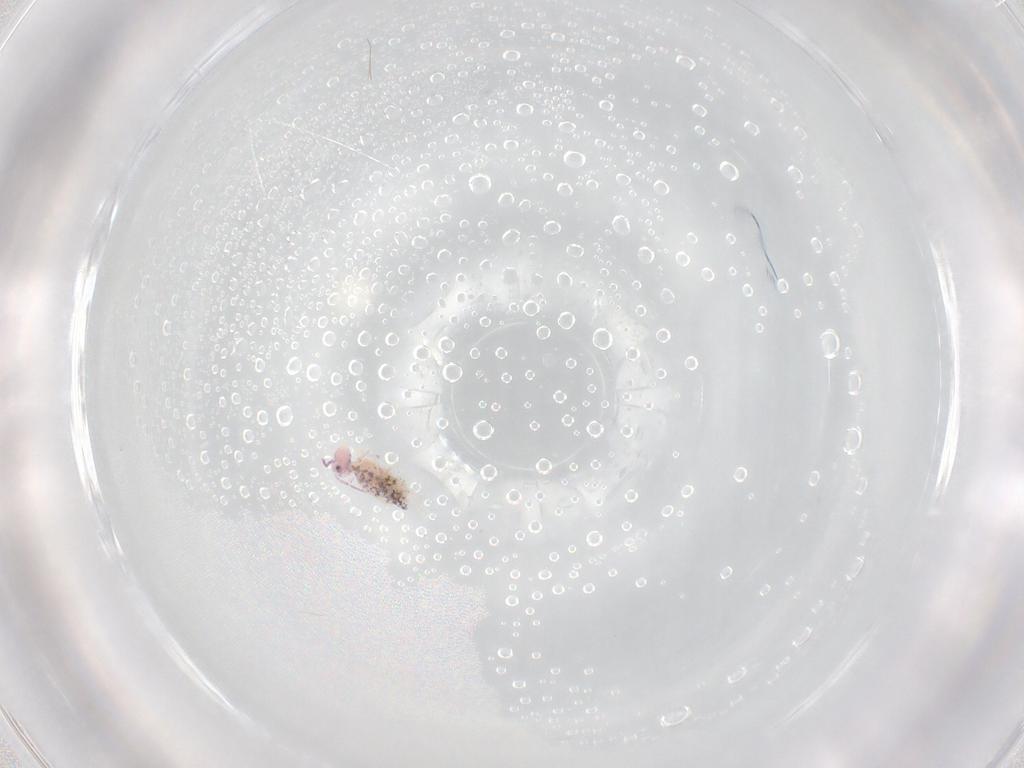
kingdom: Animalia
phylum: Arthropoda
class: Collembola
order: Symphypleona
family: Bourletiellidae
